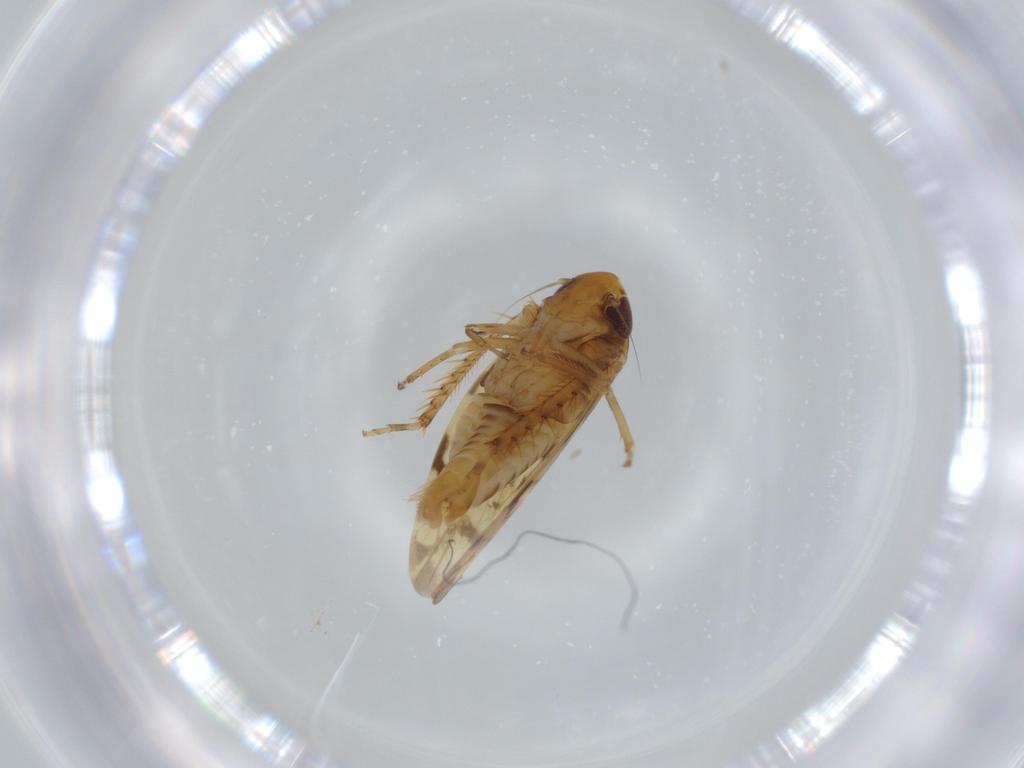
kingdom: Animalia
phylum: Arthropoda
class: Insecta
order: Hemiptera
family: Cicadellidae
